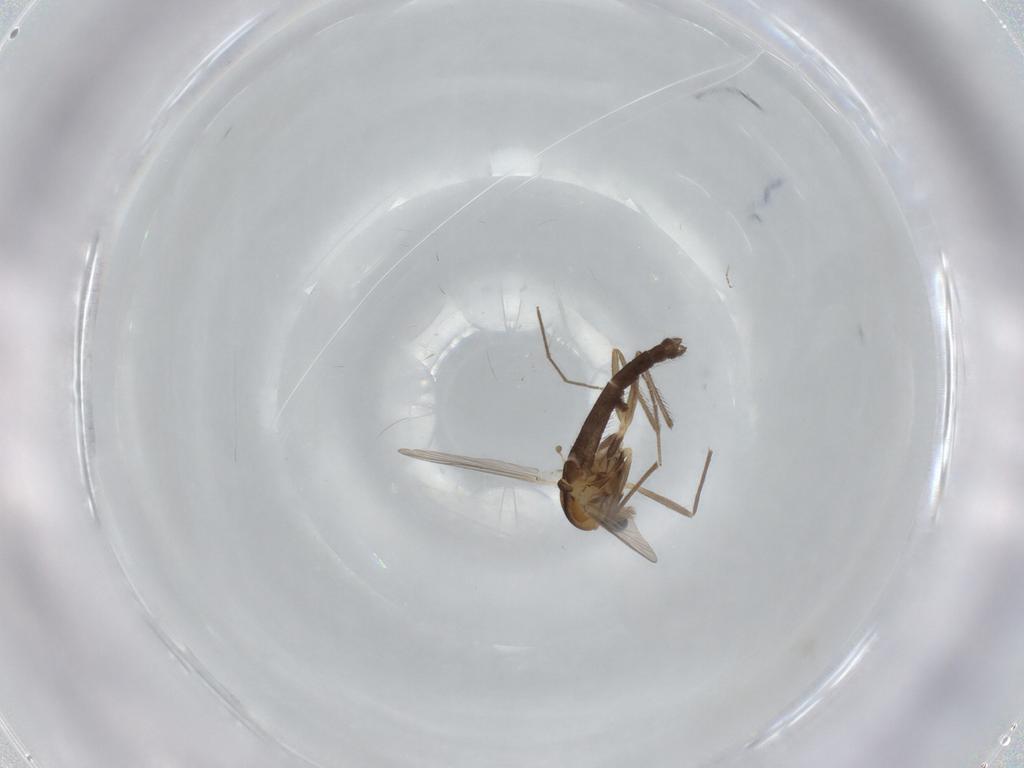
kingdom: Animalia
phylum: Arthropoda
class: Insecta
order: Diptera
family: Chironomidae
